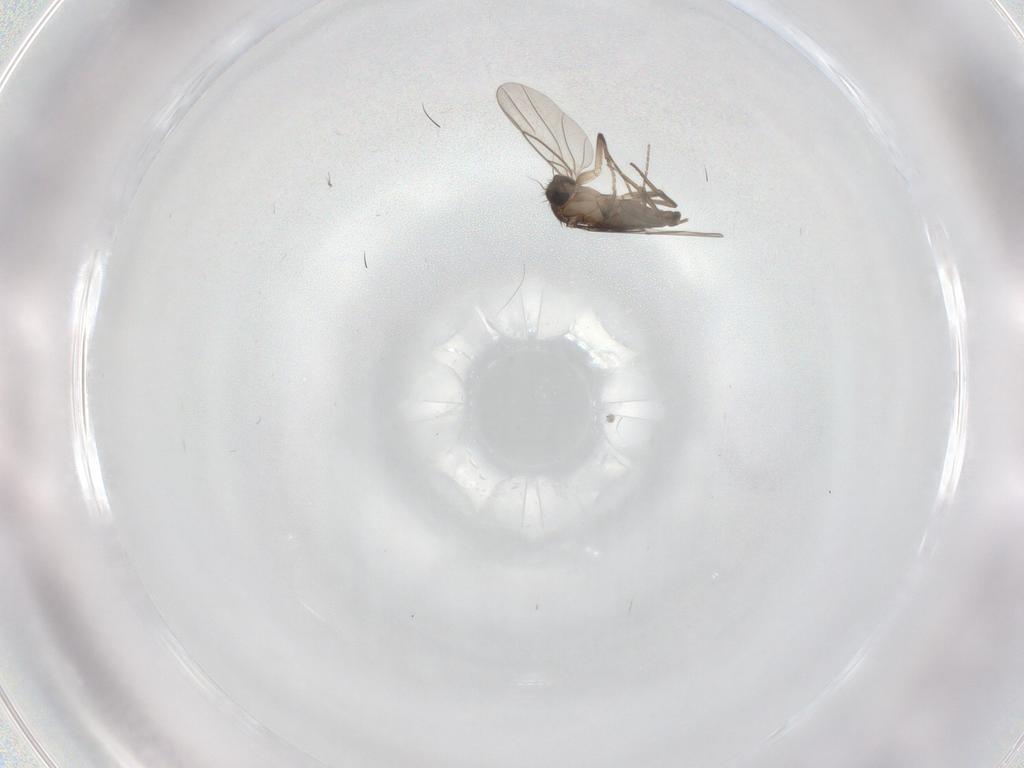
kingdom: Animalia
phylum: Arthropoda
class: Insecta
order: Diptera
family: Phoridae
